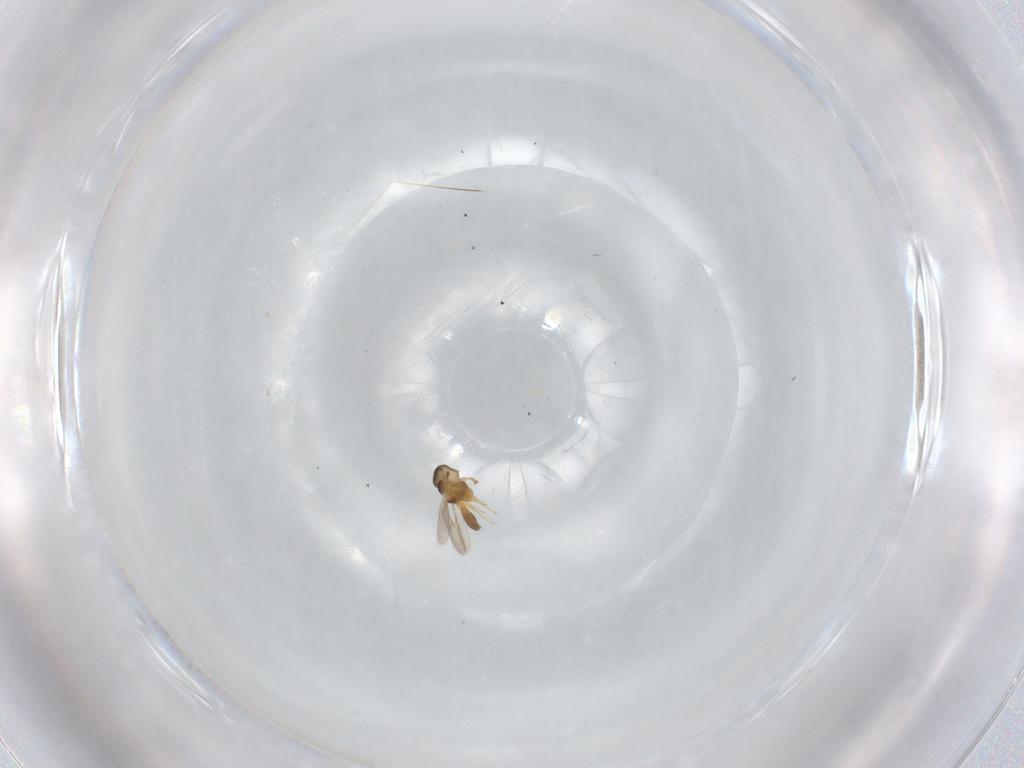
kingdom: Animalia
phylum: Arthropoda
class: Insecta
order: Hymenoptera
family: Scelionidae
